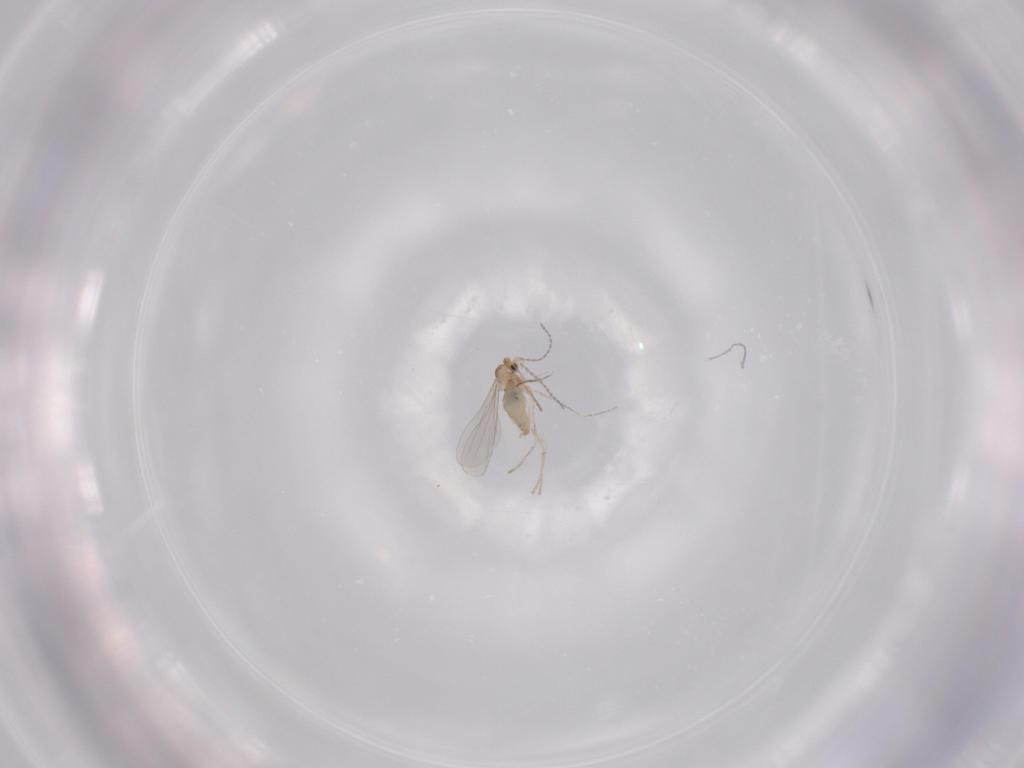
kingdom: Animalia
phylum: Arthropoda
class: Insecta
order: Diptera
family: Cecidomyiidae
